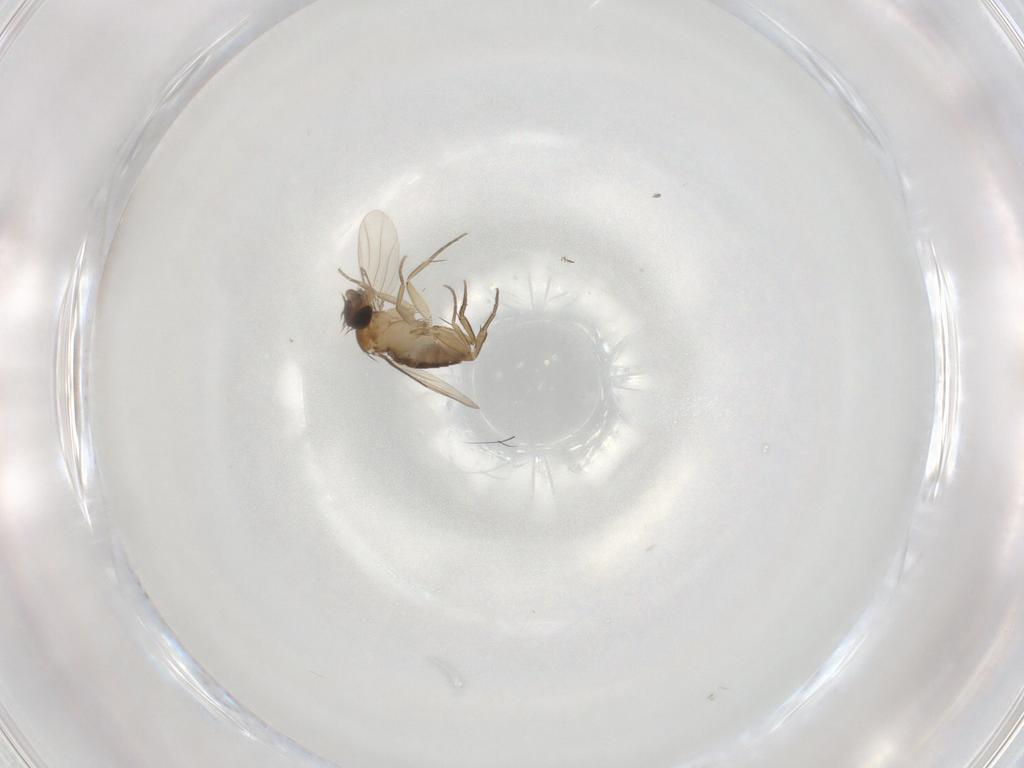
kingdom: Animalia
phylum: Arthropoda
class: Insecta
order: Diptera
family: Phoridae
